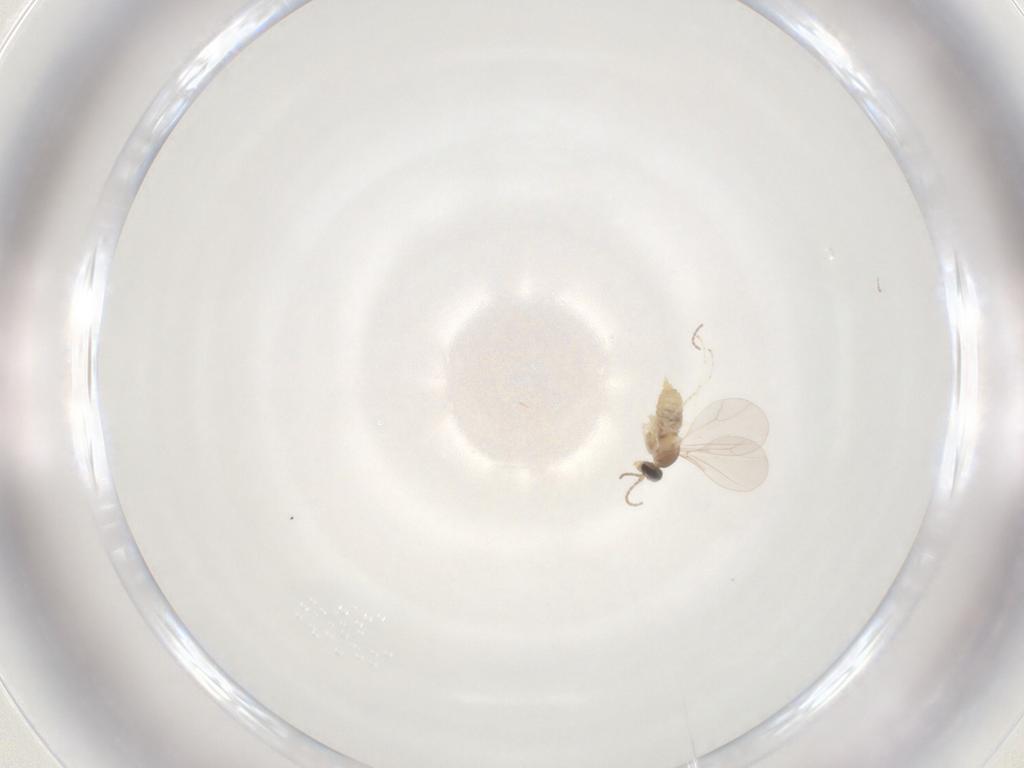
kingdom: Animalia
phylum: Arthropoda
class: Insecta
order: Diptera
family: Cecidomyiidae
